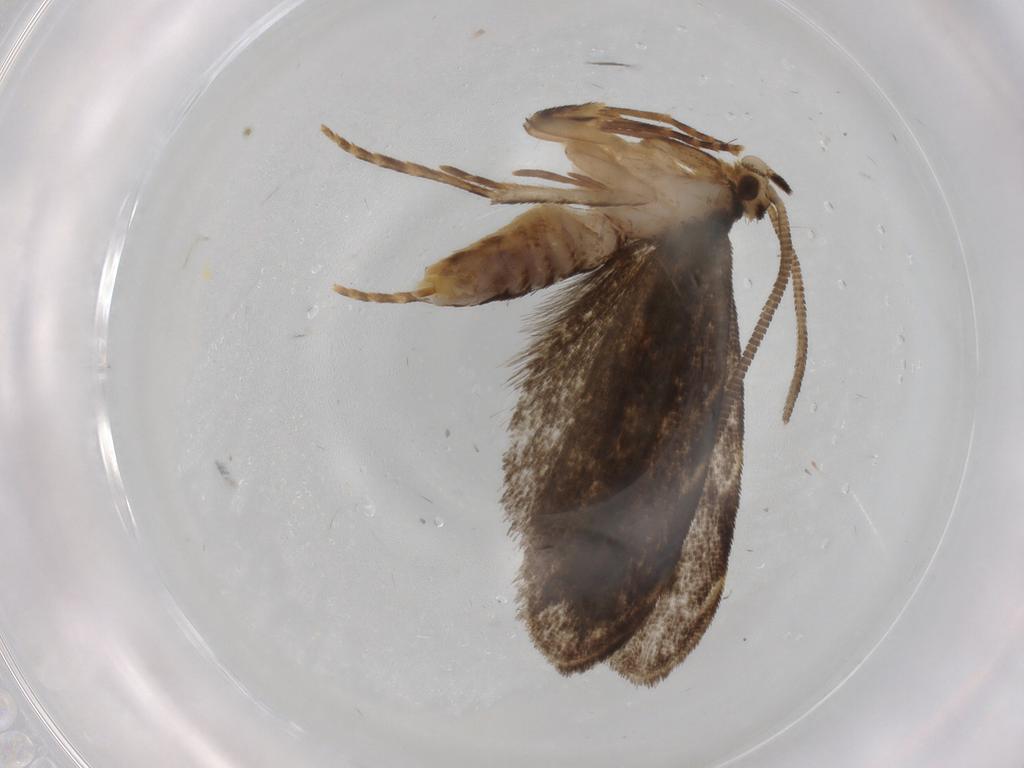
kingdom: Animalia
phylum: Arthropoda
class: Insecta
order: Lepidoptera
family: Dryadaulidae
